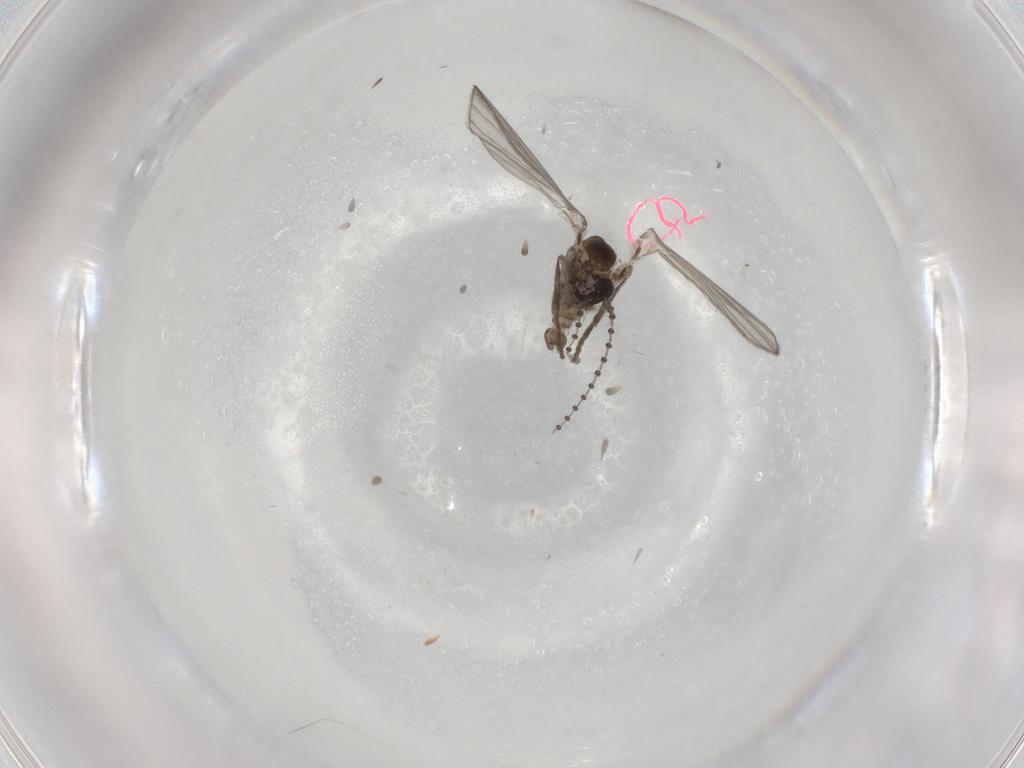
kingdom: Animalia
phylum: Arthropoda
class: Insecta
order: Diptera
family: Psychodidae
